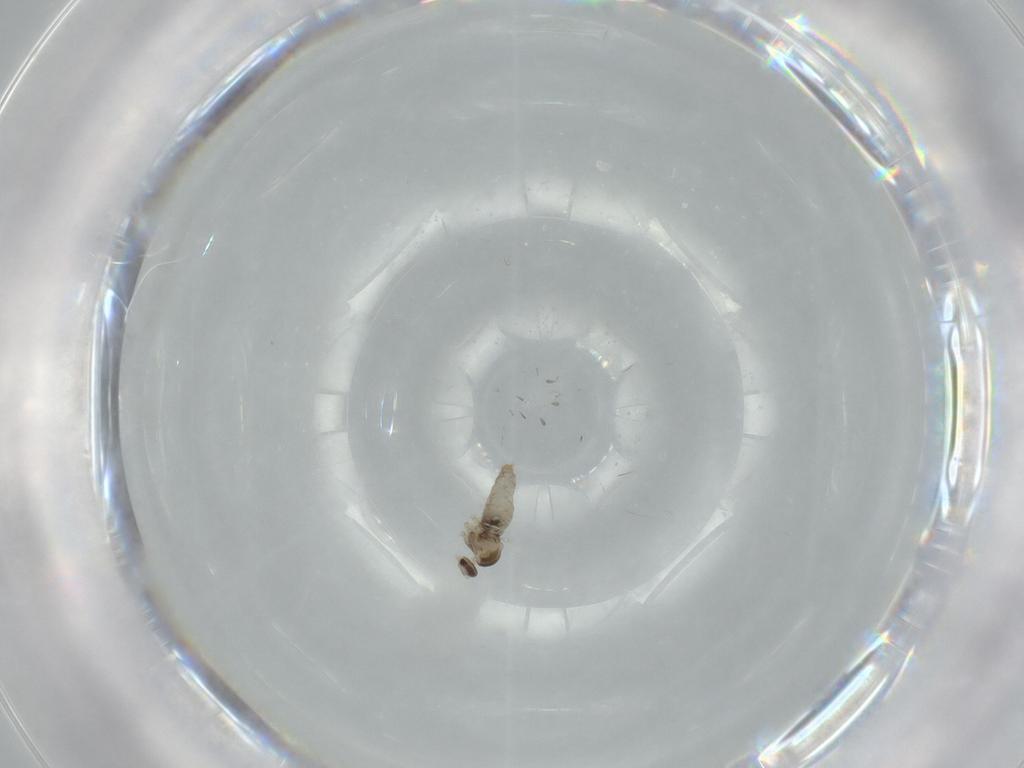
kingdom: Animalia
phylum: Arthropoda
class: Insecta
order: Diptera
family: Cecidomyiidae
